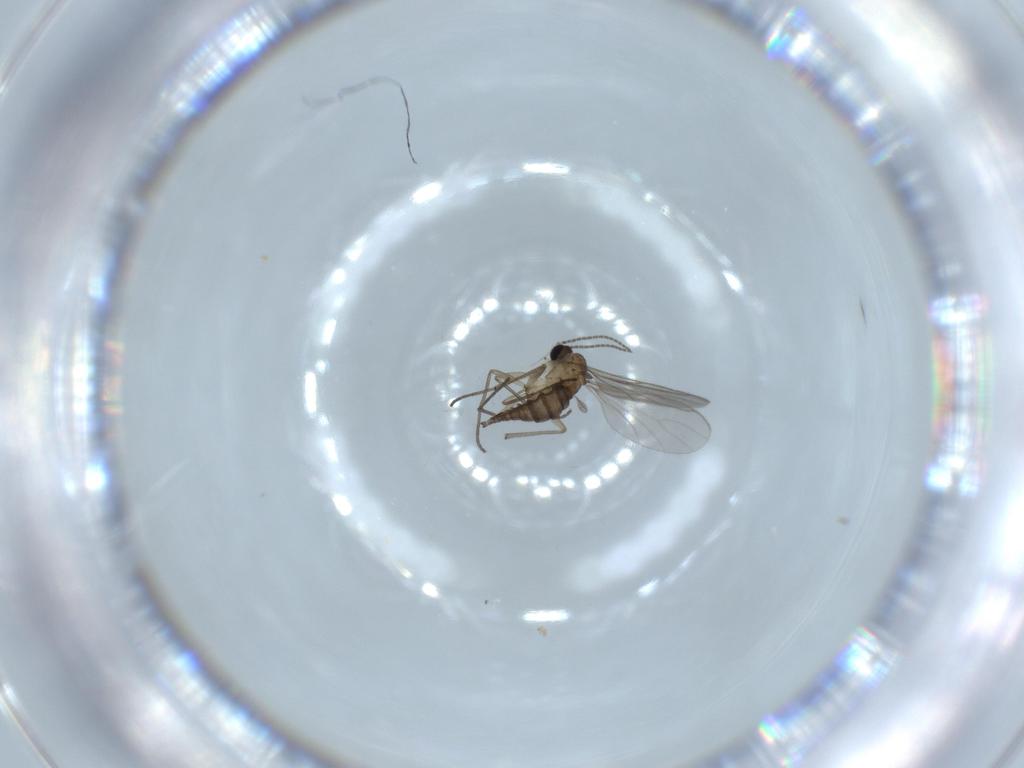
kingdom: Animalia
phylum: Arthropoda
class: Insecta
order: Diptera
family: Sciaridae
